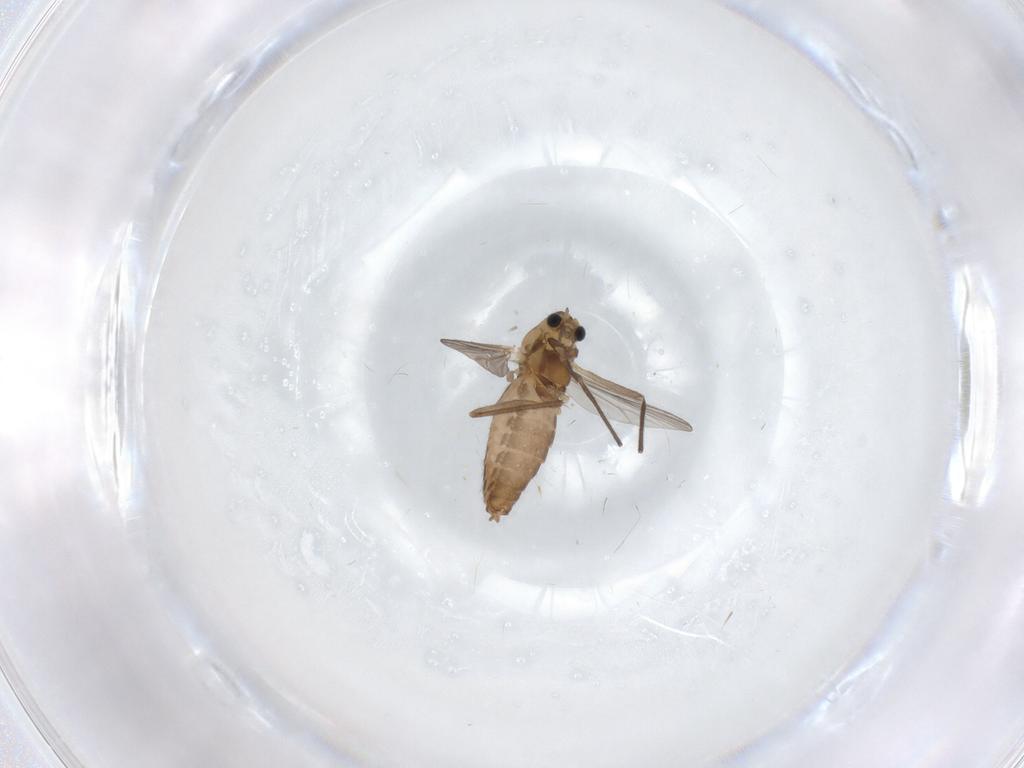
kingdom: Animalia
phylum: Arthropoda
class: Insecta
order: Diptera
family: Chironomidae
